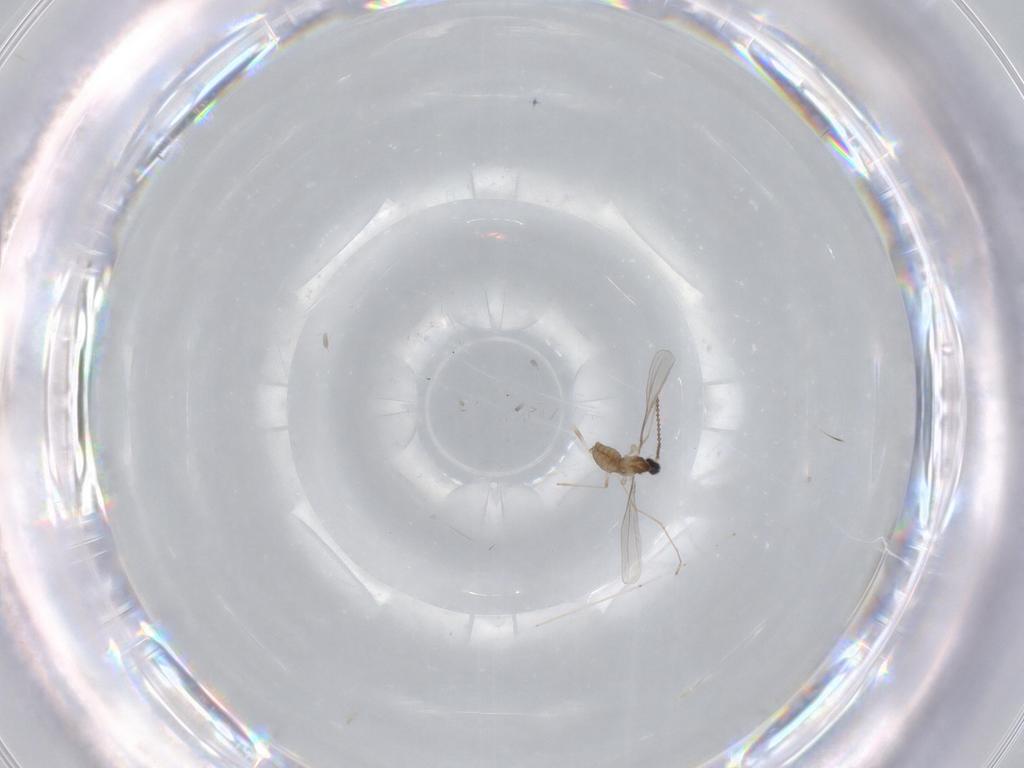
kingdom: Animalia
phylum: Arthropoda
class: Insecta
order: Diptera
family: Cecidomyiidae
